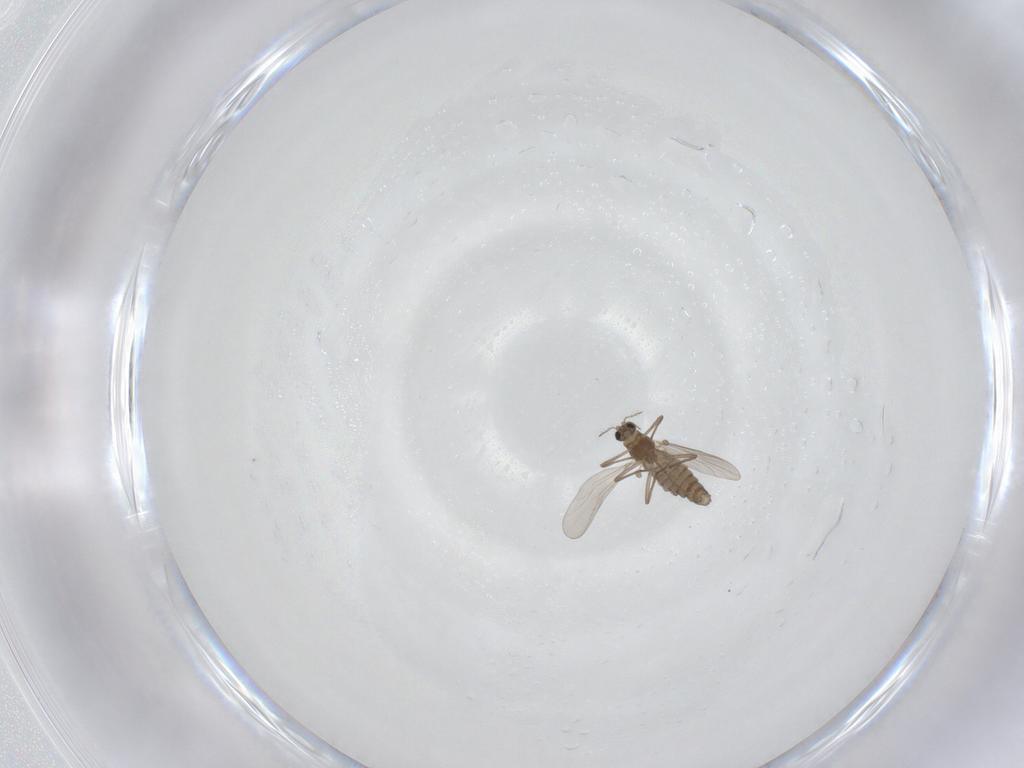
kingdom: Animalia
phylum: Arthropoda
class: Insecta
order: Diptera
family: Chironomidae
